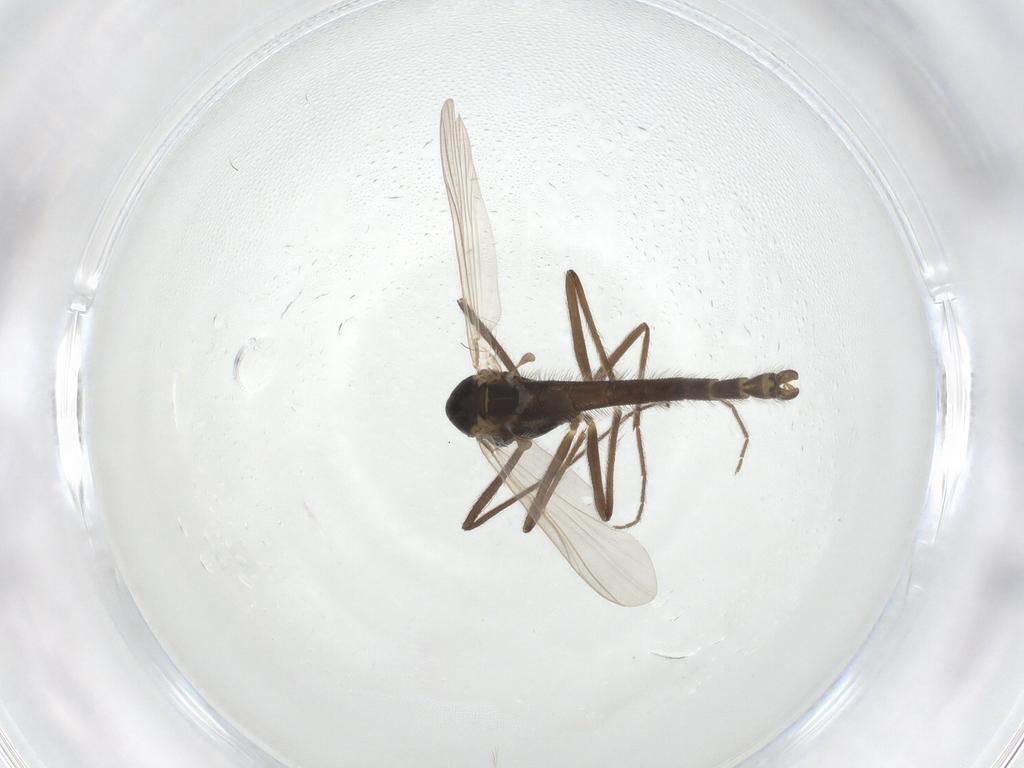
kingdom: Animalia
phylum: Arthropoda
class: Insecta
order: Diptera
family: Chironomidae
